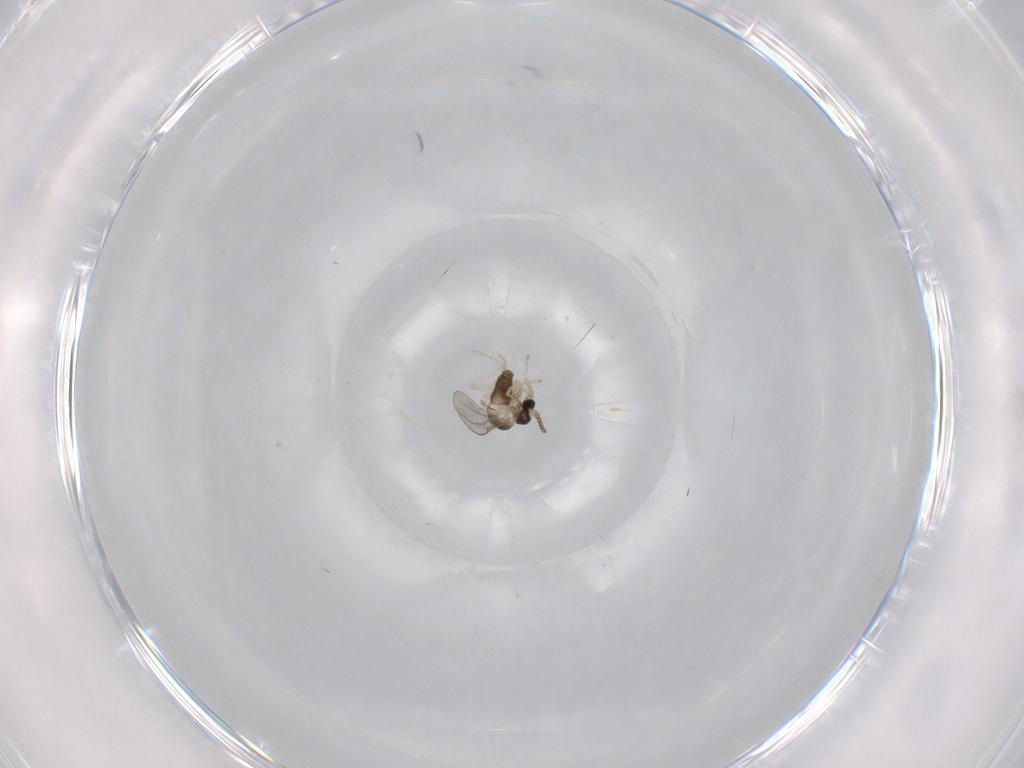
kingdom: Animalia
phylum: Arthropoda
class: Insecta
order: Diptera
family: Cecidomyiidae
